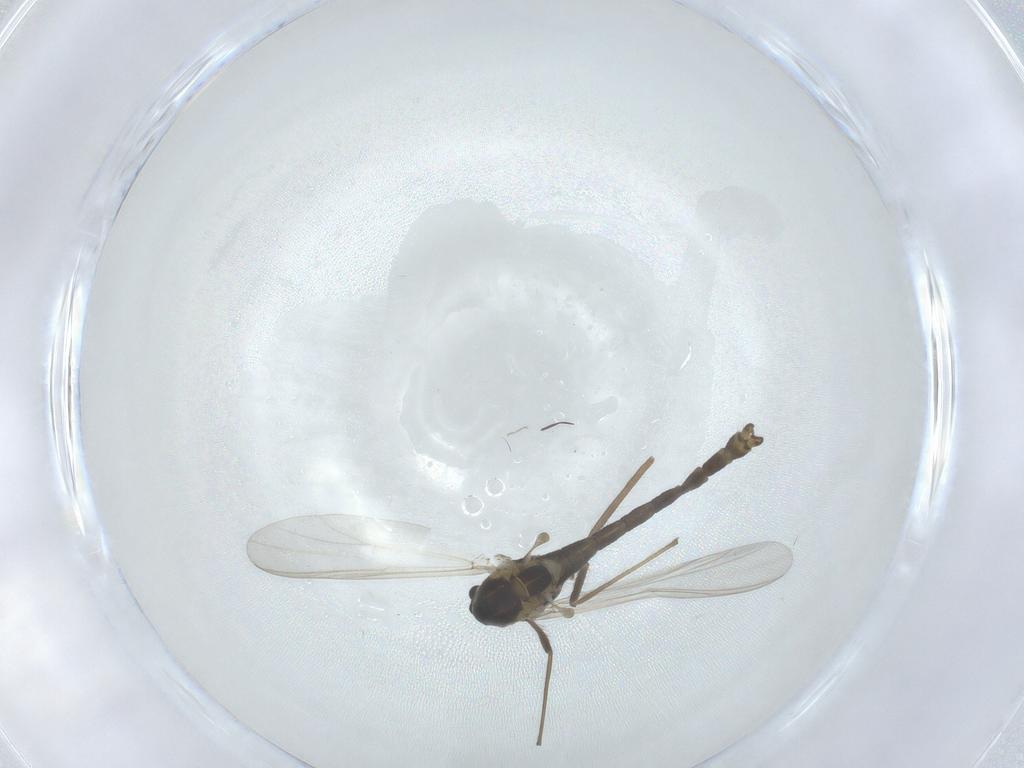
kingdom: Animalia
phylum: Arthropoda
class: Insecta
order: Diptera
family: Chironomidae
